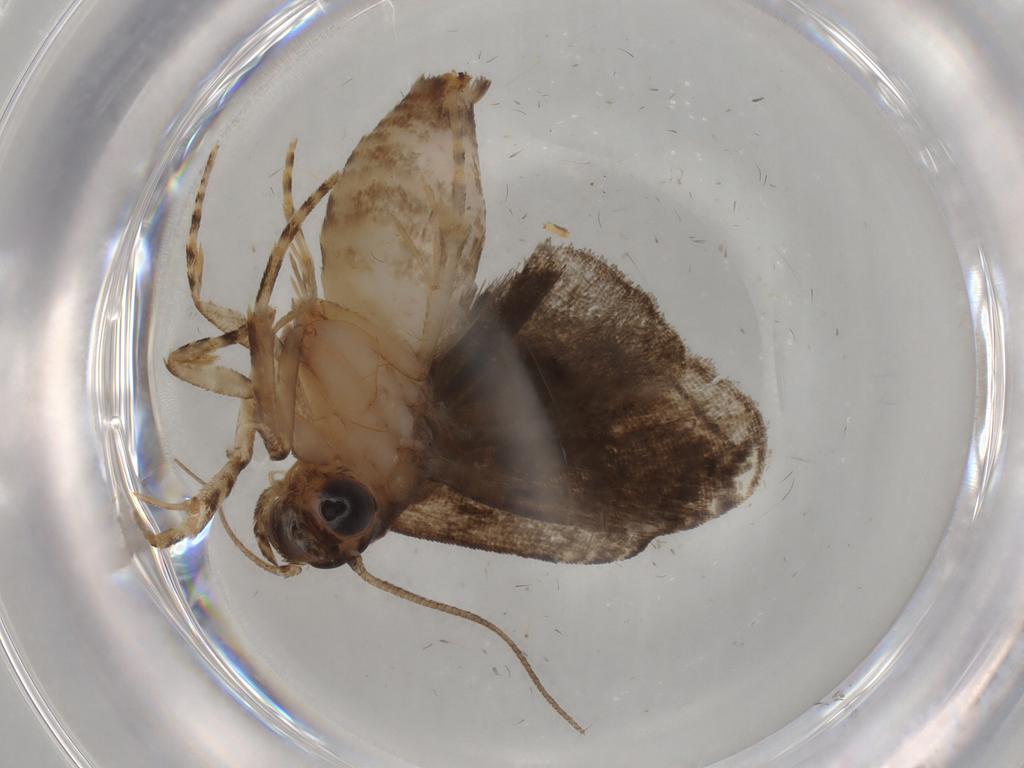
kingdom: Animalia
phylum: Arthropoda
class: Insecta
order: Lepidoptera
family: Immidae
